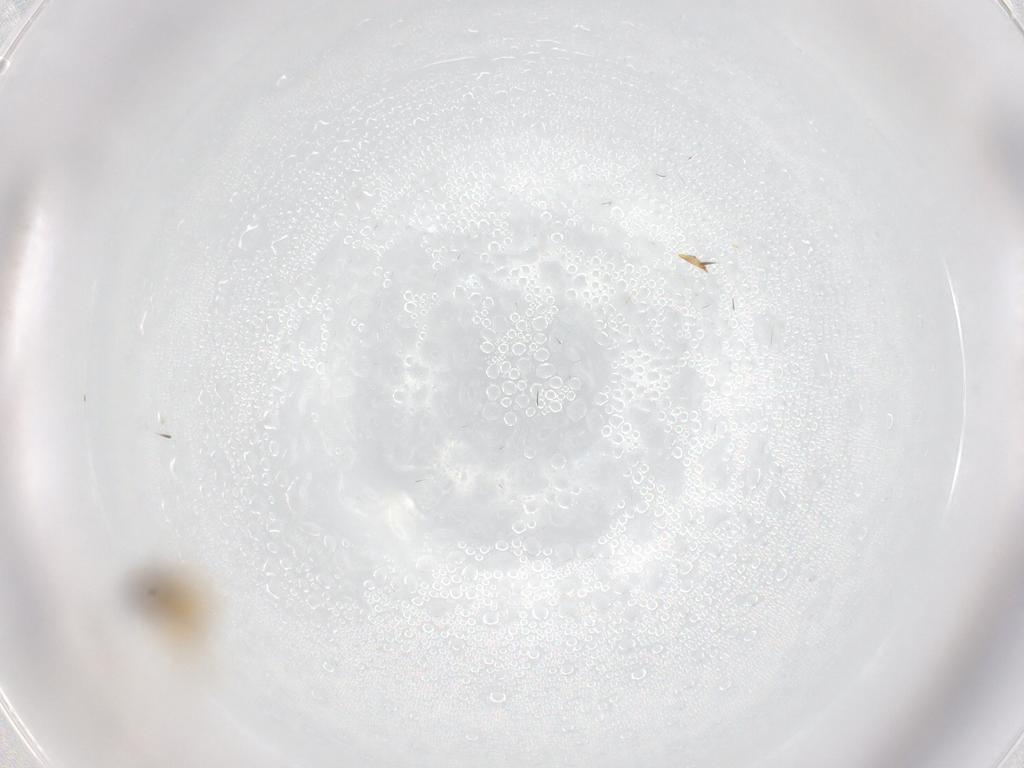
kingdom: Animalia
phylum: Arthropoda
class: Insecta
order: Hymenoptera
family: Formicidae
